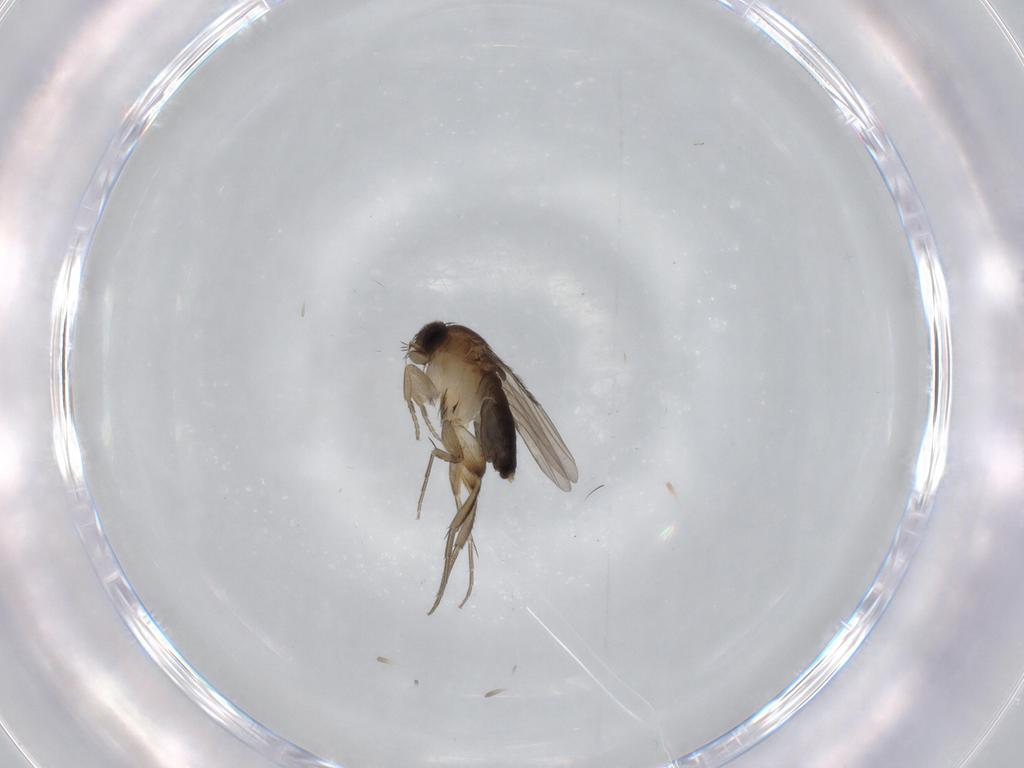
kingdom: Animalia
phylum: Arthropoda
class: Insecta
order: Diptera
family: Phoridae
